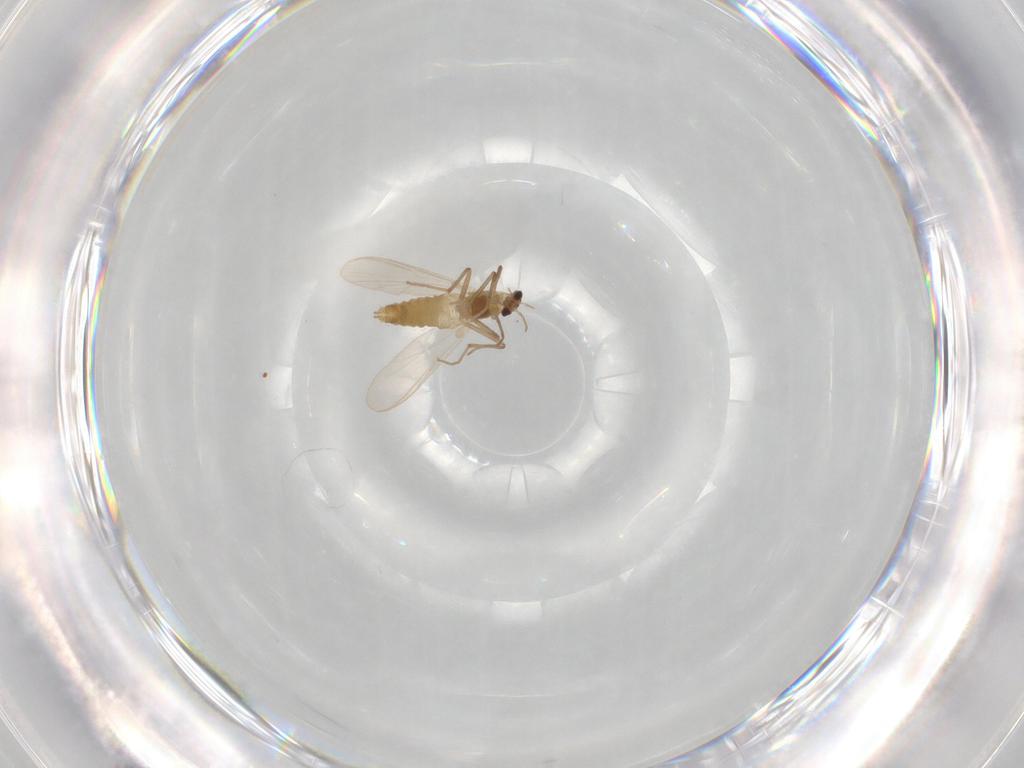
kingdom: Animalia
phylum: Arthropoda
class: Insecta
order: Diptera
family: Chironomidae
